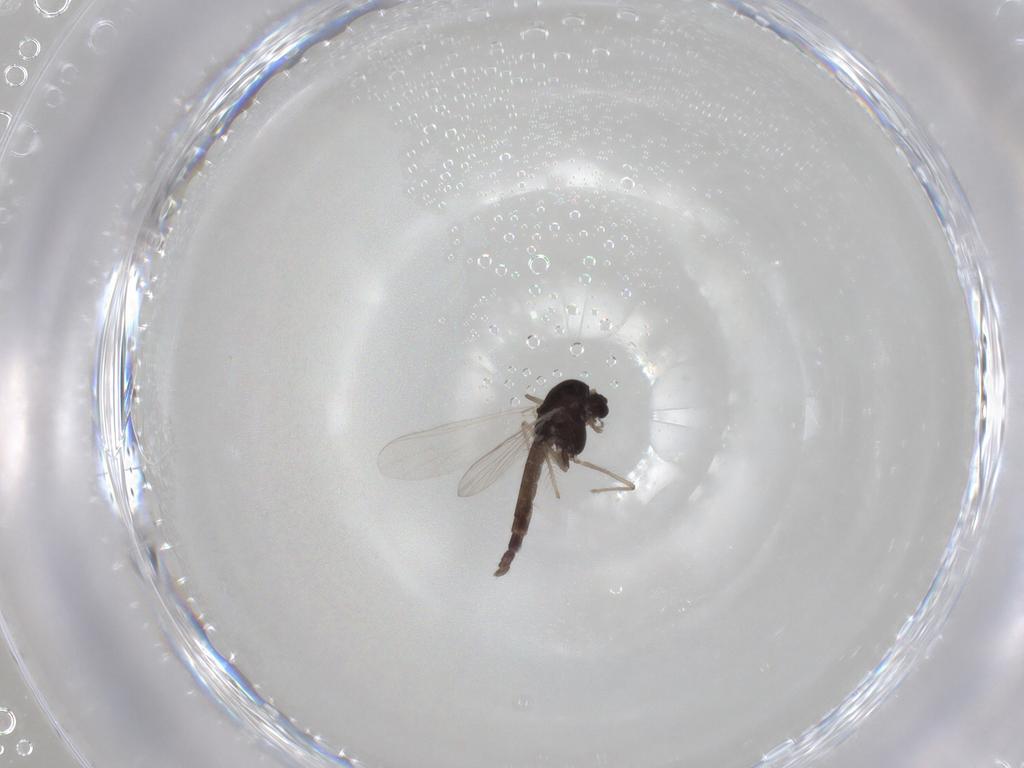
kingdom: Animalia
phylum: Arthropoda
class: Insecta
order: Diptera
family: Chironomidae
